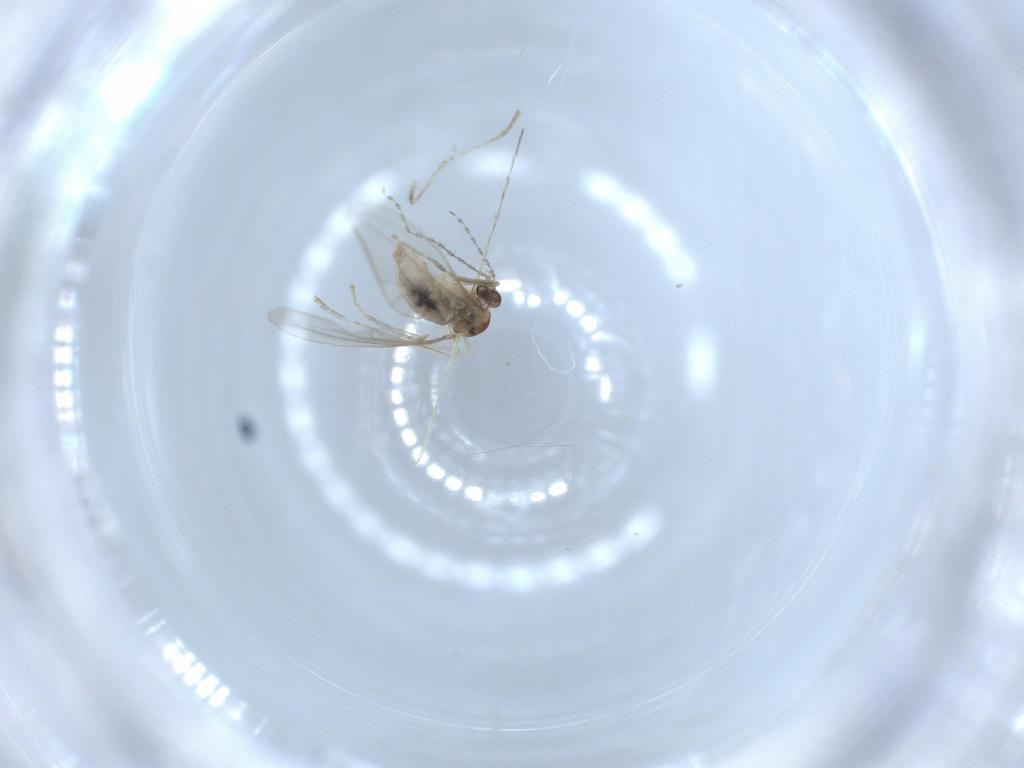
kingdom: Animalia
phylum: Arthropoda
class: Insecta
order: Diptera
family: Cecidomyiidae
